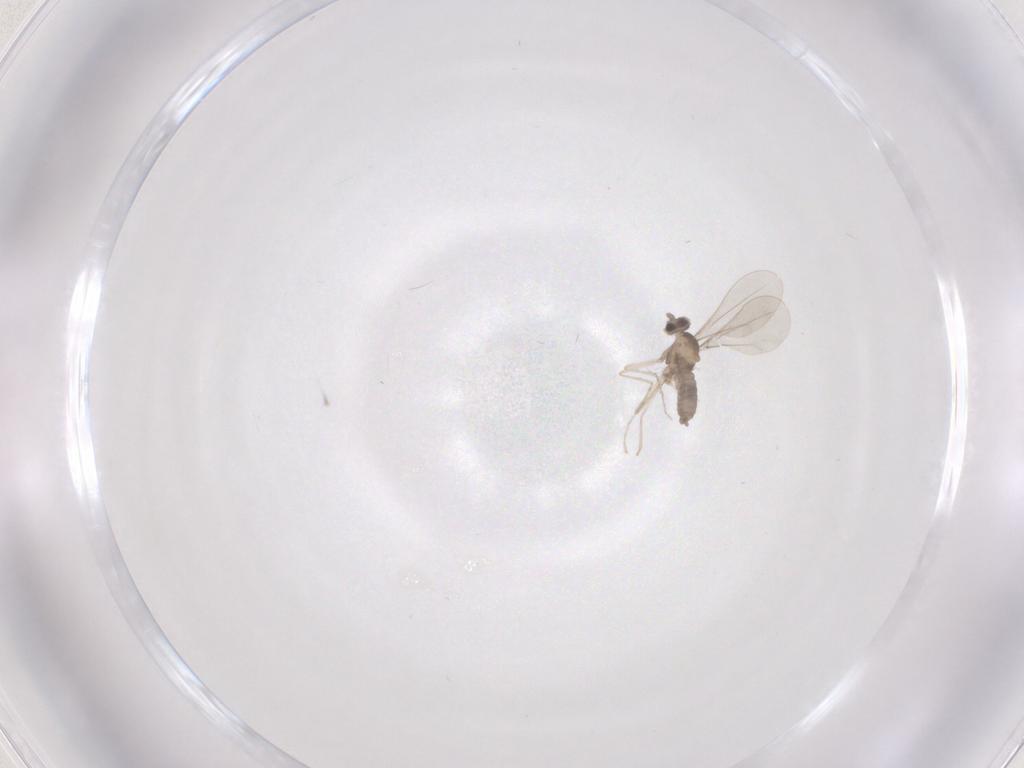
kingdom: Animalia
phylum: Arthropoda
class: Insecta
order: Diptera
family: Cecidomyiidae
